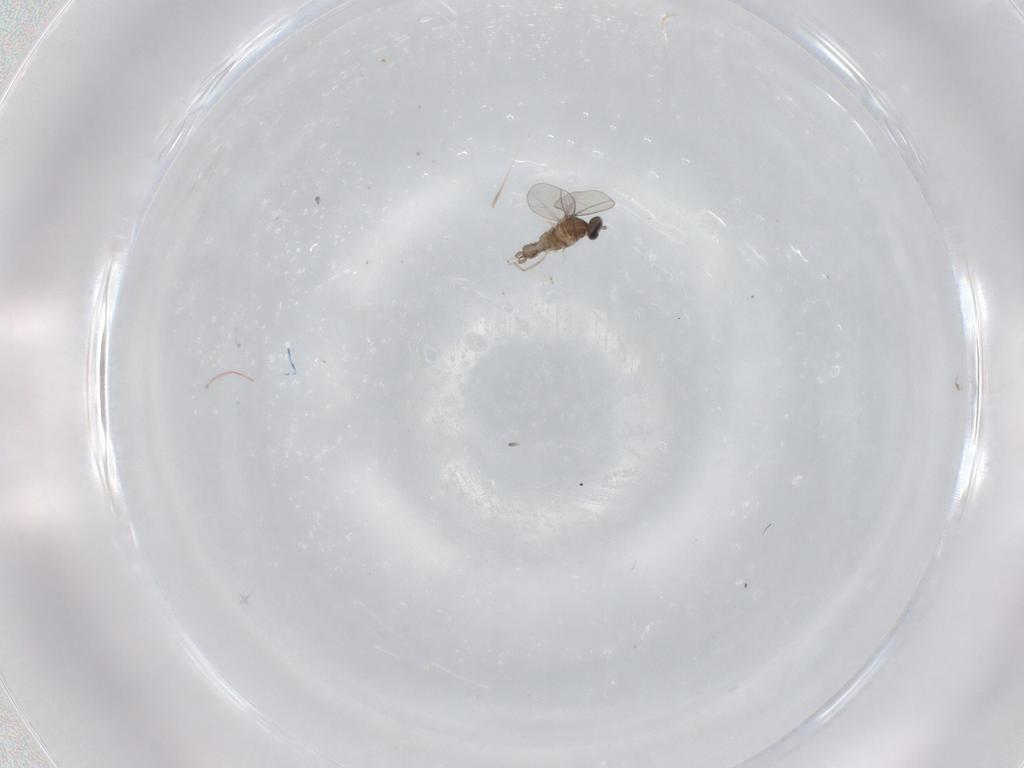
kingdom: Animalia
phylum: Arthropoda
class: Insecta
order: Diptera
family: Cecidomyiidae
